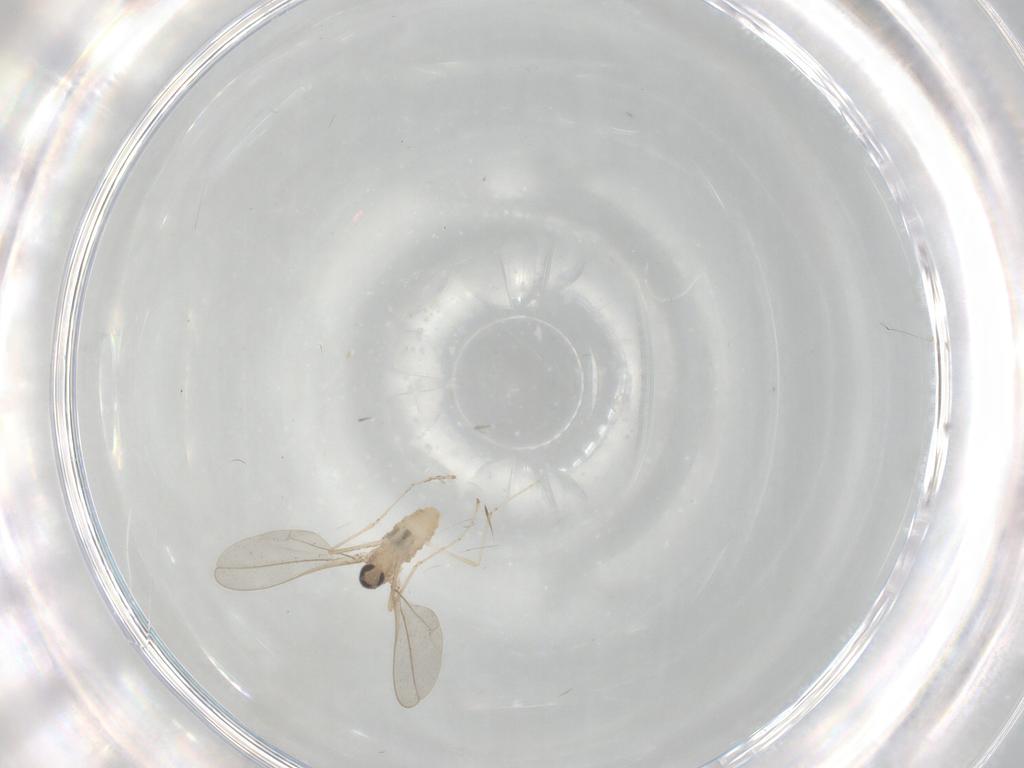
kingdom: Animalia
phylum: Arthropoda
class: Insecta
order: Diptera
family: Cecidomyiidae
